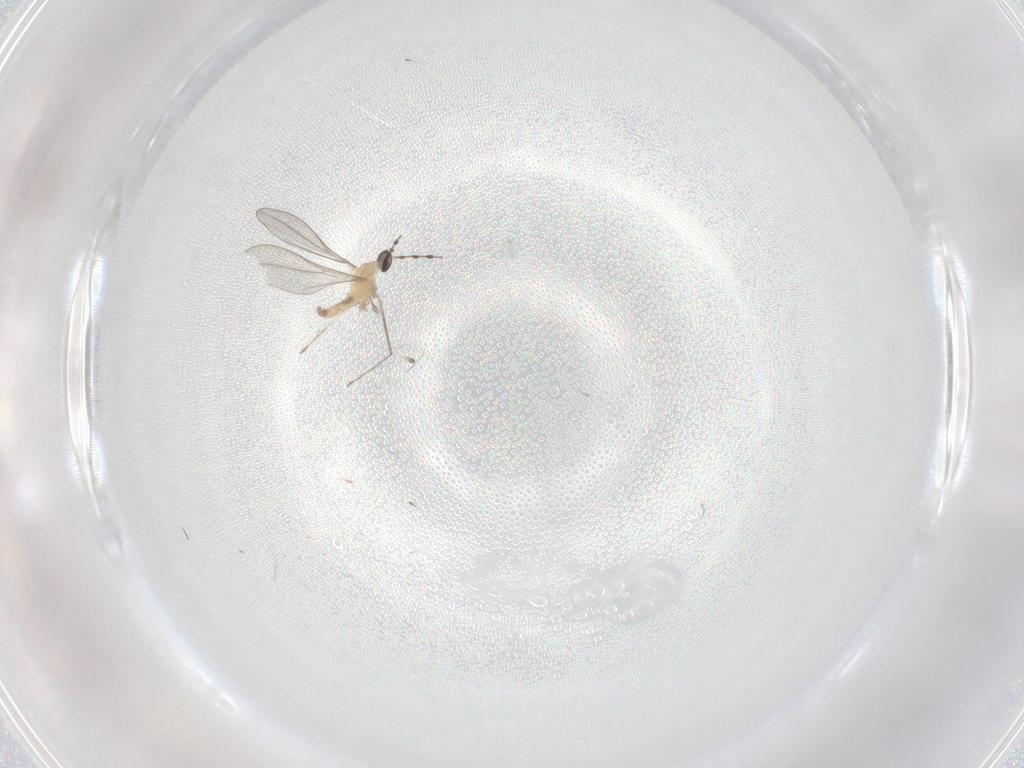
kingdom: Animalia
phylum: Arthropoda
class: Insecta
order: Diptera
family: Cecidomyiidae
